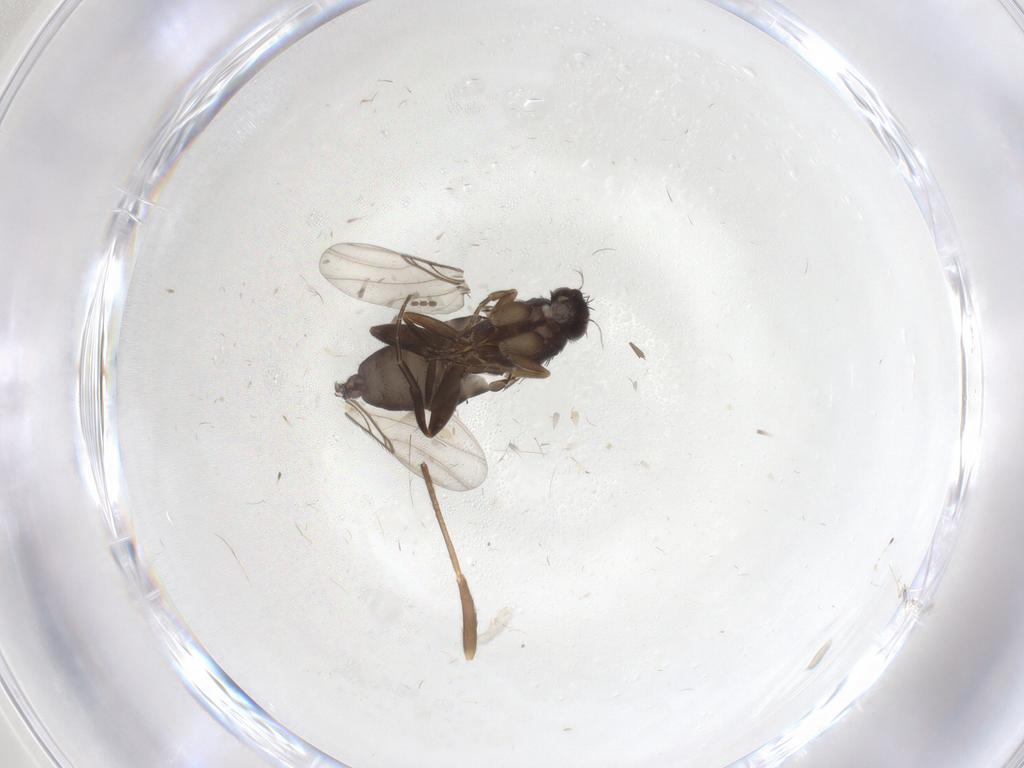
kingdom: Animalia
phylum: Arthropoda
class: Insecta
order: Diptera
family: Phoridae
